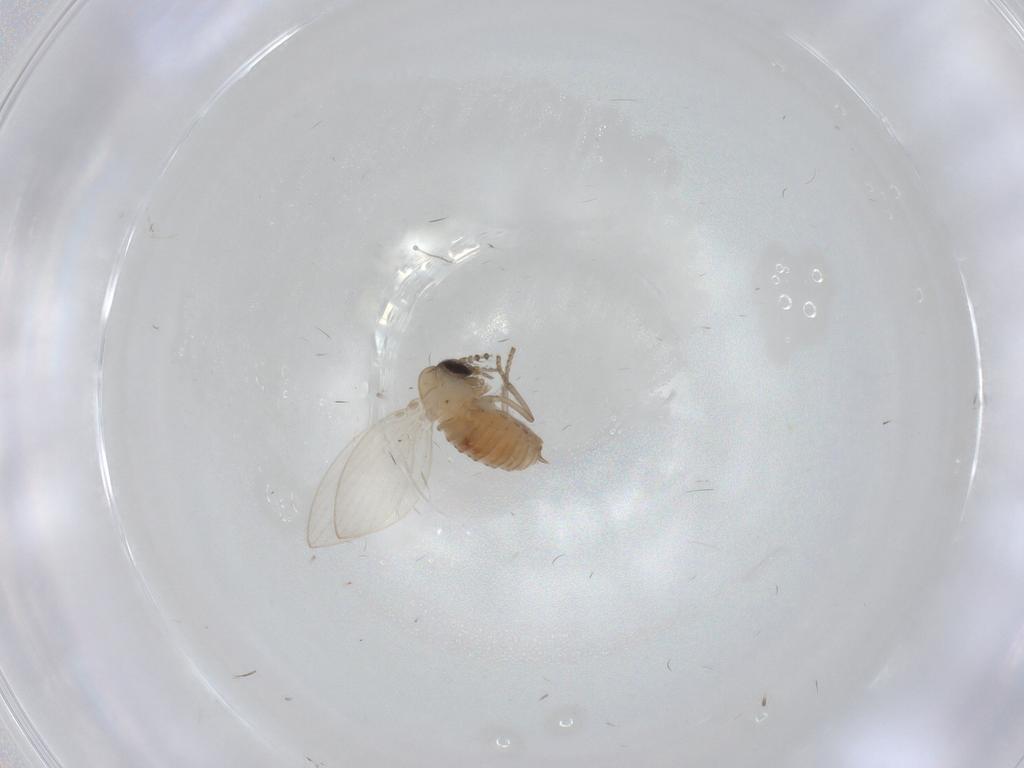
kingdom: Animalia
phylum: Arthropoda
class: Insecta
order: Diptera
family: Psychodidae
